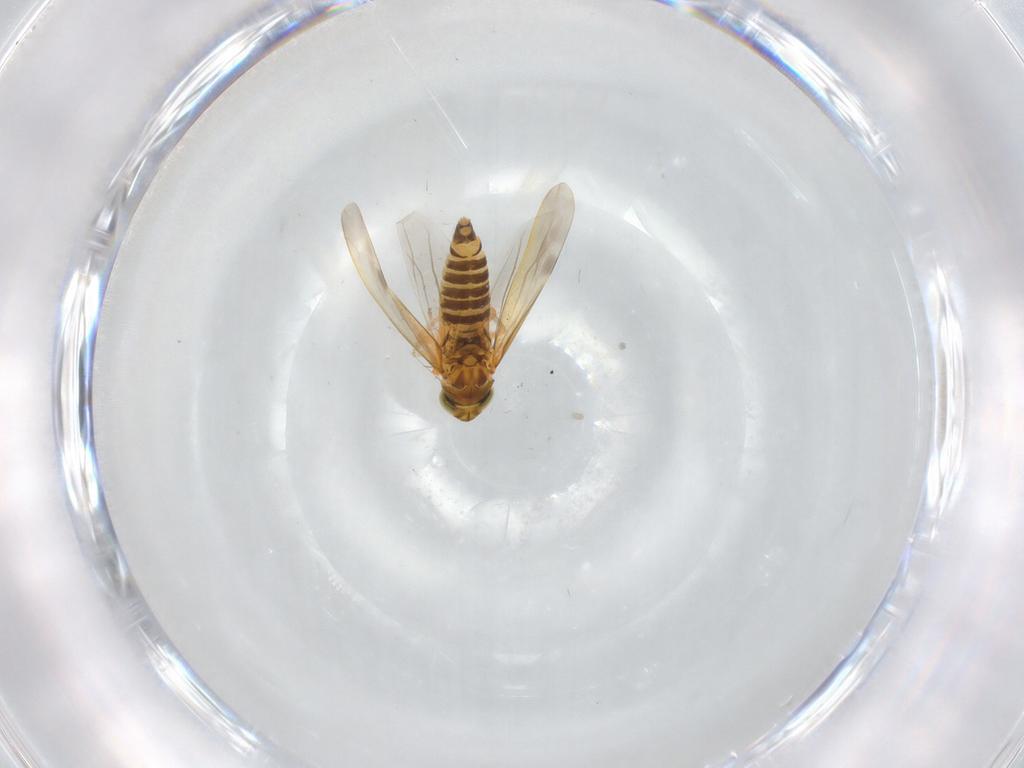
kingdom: Animalia
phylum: Arthropoda
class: Insecta
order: Hemiptera
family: Cicadellidae
